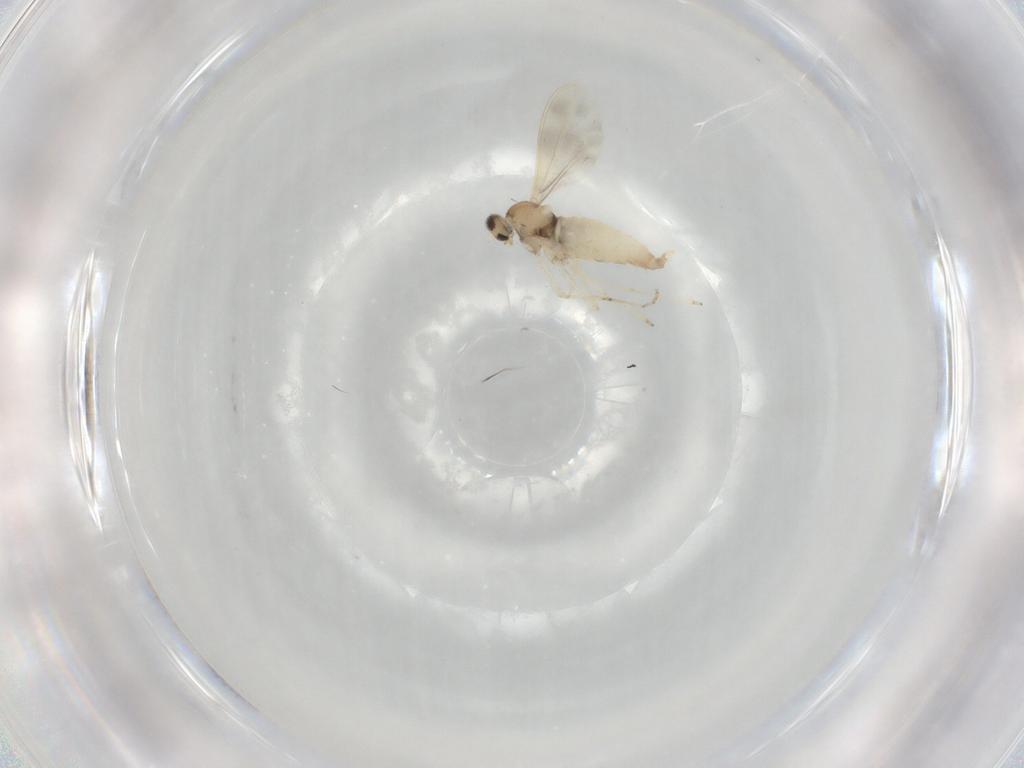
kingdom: Animalia
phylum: Arthropoda
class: Insecta
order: Diptera
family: Cecidomyiidae
